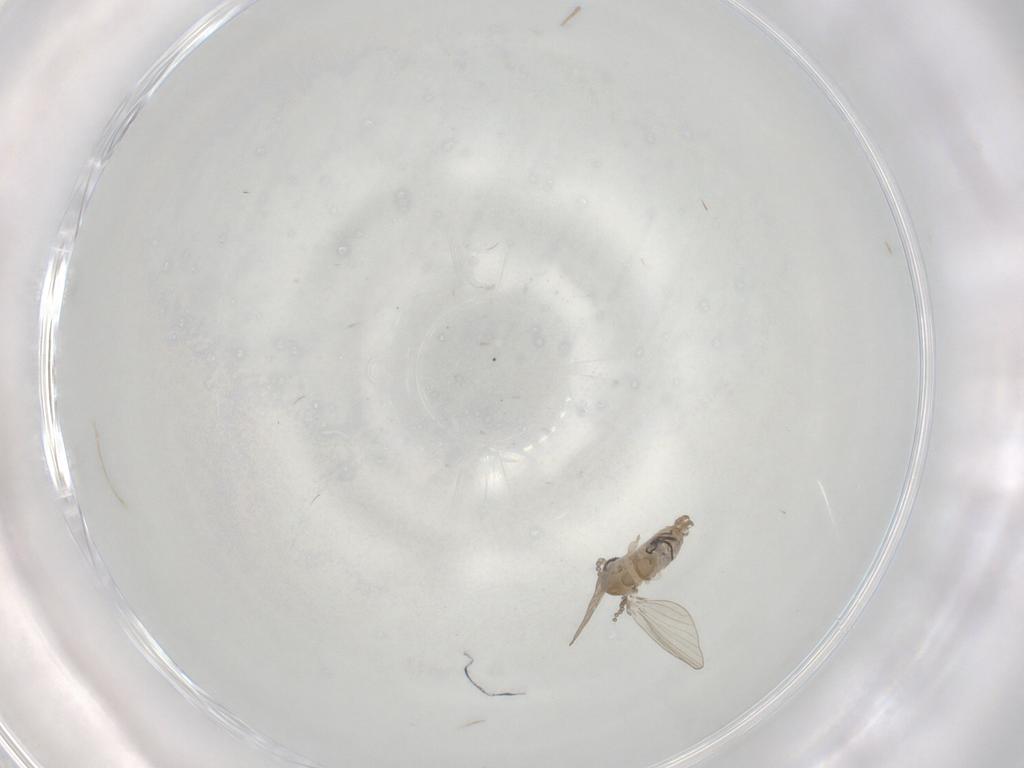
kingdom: Animalia
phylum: Arthropoda
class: Insecta
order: Diptera
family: Psychodidae
